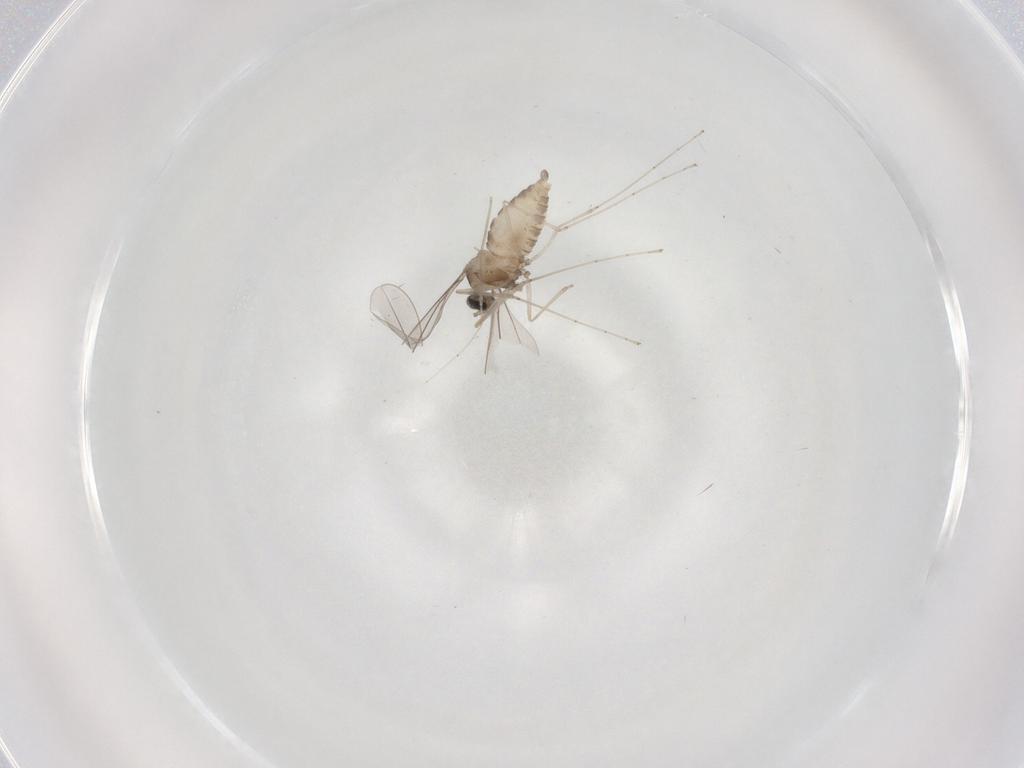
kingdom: Animalia
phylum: Arthropoda
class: Insecta
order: Diptera
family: Cecidomyiidae
